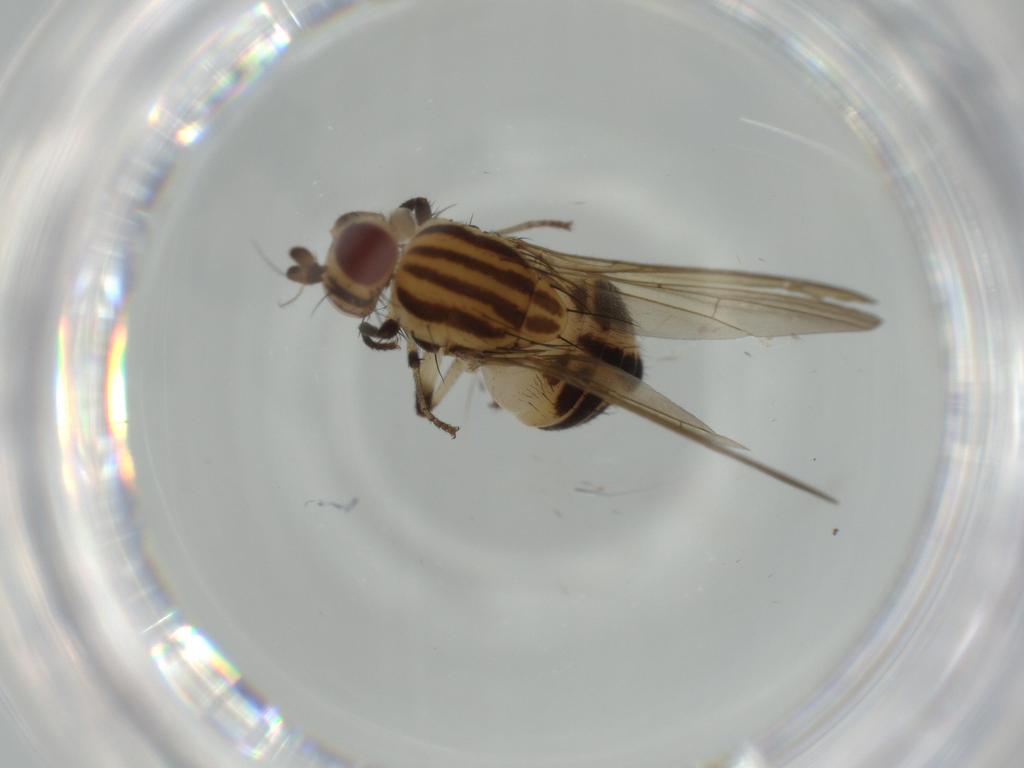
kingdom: Animalia
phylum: Arthropoda
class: Insecta
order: Diptera
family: Lauxaniidae
